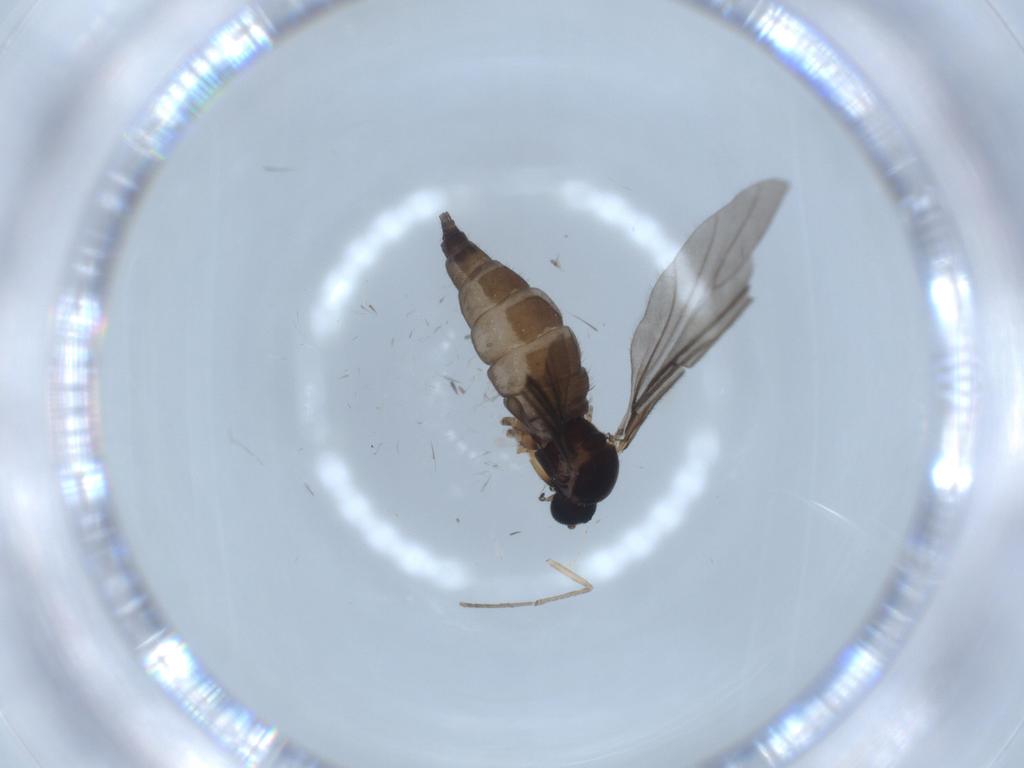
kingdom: Animalia
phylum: Arthropoda
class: Insecta
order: Diptera
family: Sciaridae
